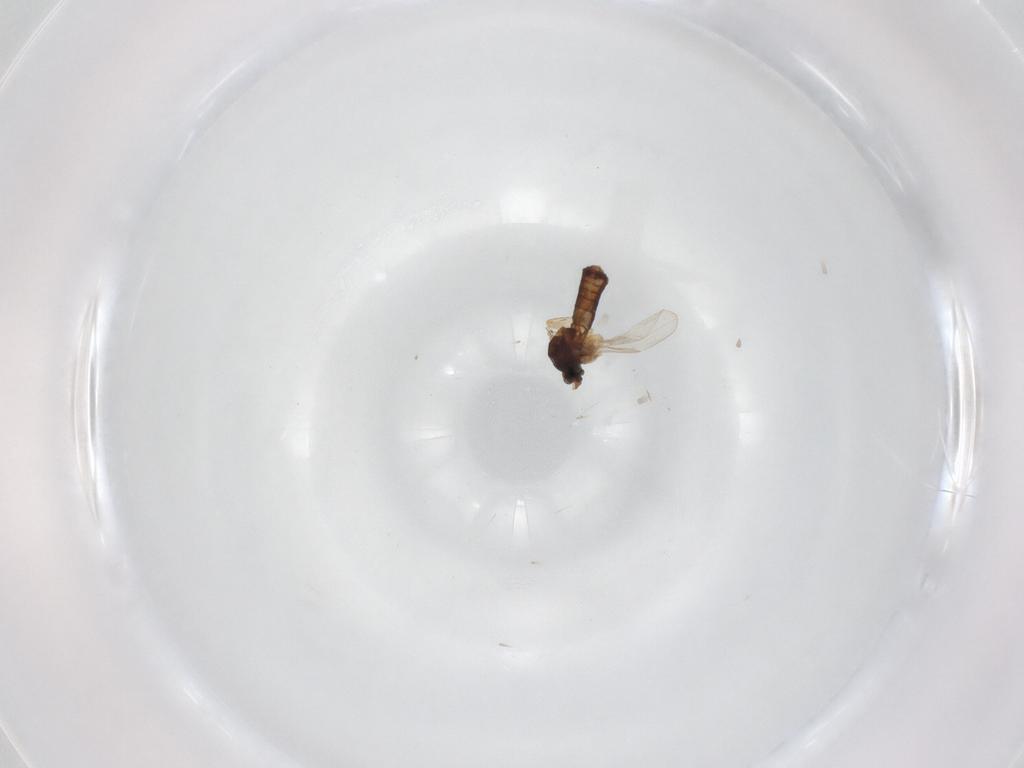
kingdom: Animalia
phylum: Arthropoda
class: Insecta
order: Diptera
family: Ceratopogonidae
